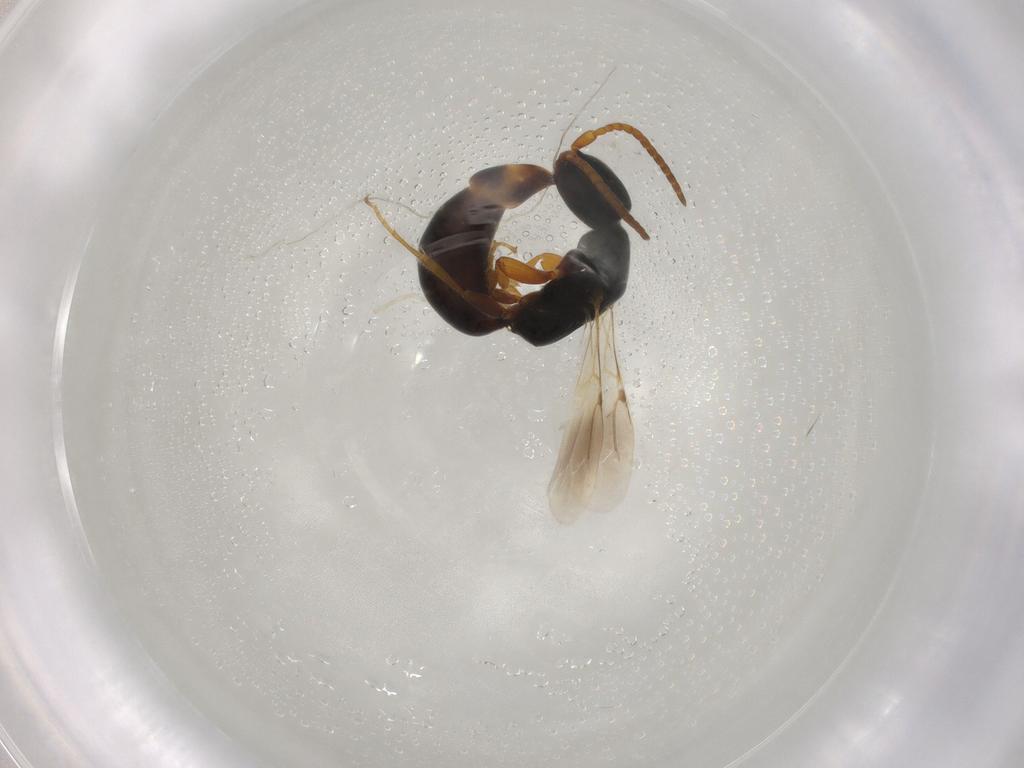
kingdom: Animalia
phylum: Arthropoda
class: Insecta
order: Hymenoptera
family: Bethylidae
